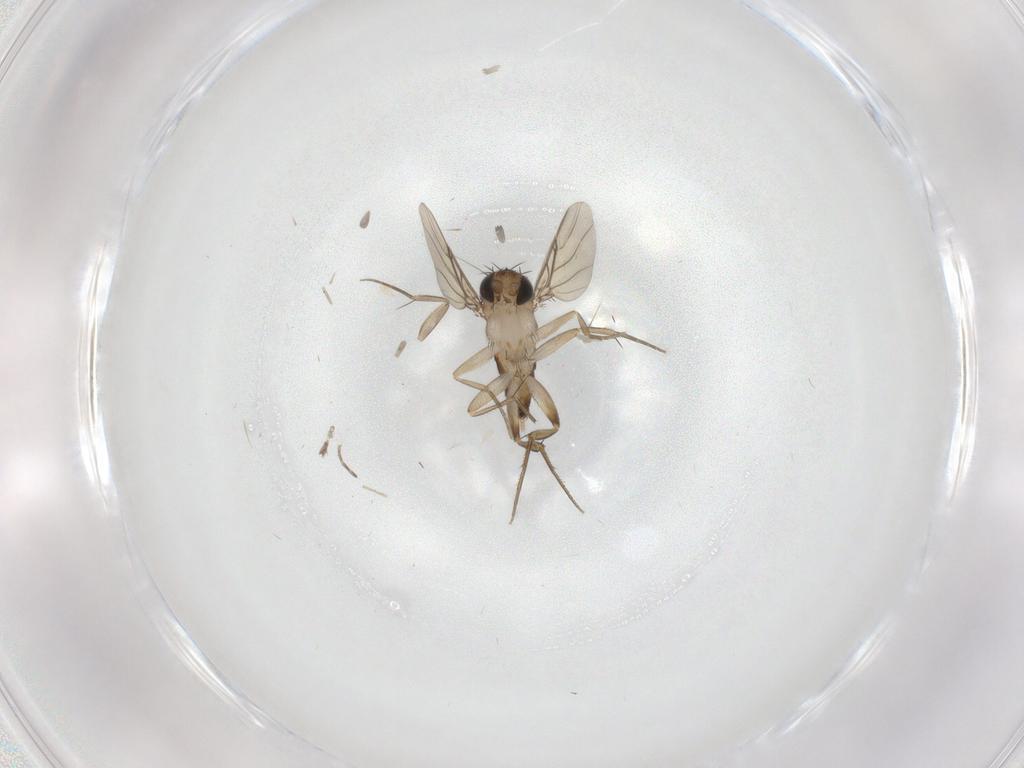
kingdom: Animalia
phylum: Arthropoda
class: Insecta
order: Diptera
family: Phoridae
